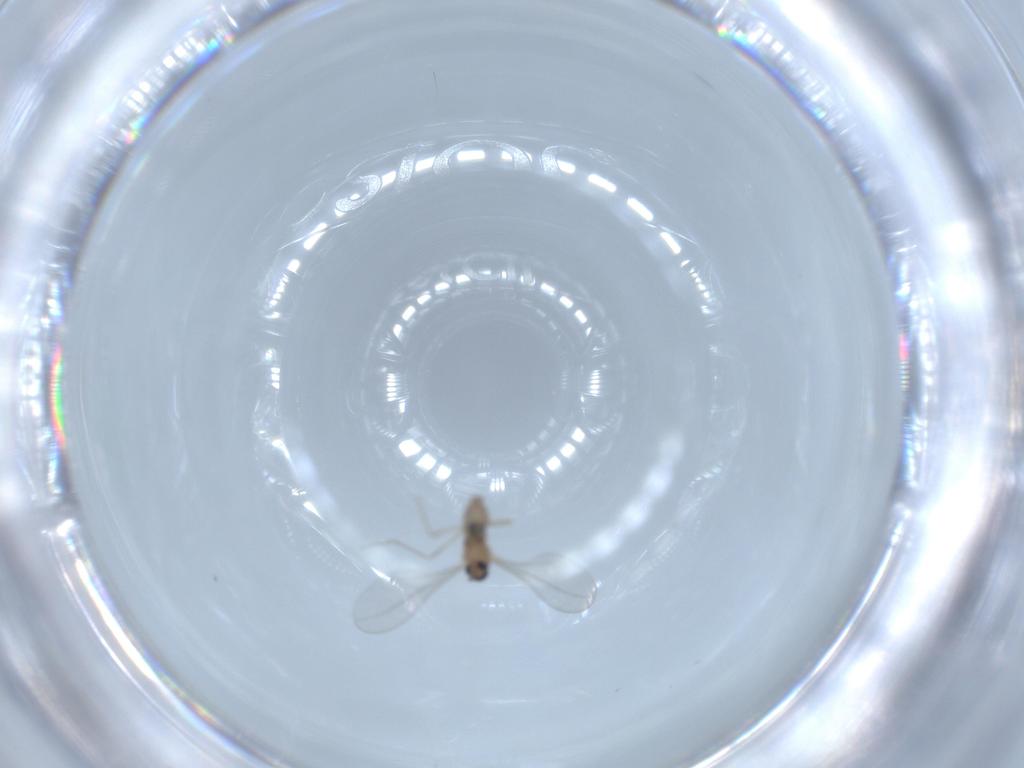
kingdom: Animalia
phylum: Arthropoda
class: Insecta
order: Diptera
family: Cecidomyiidae
